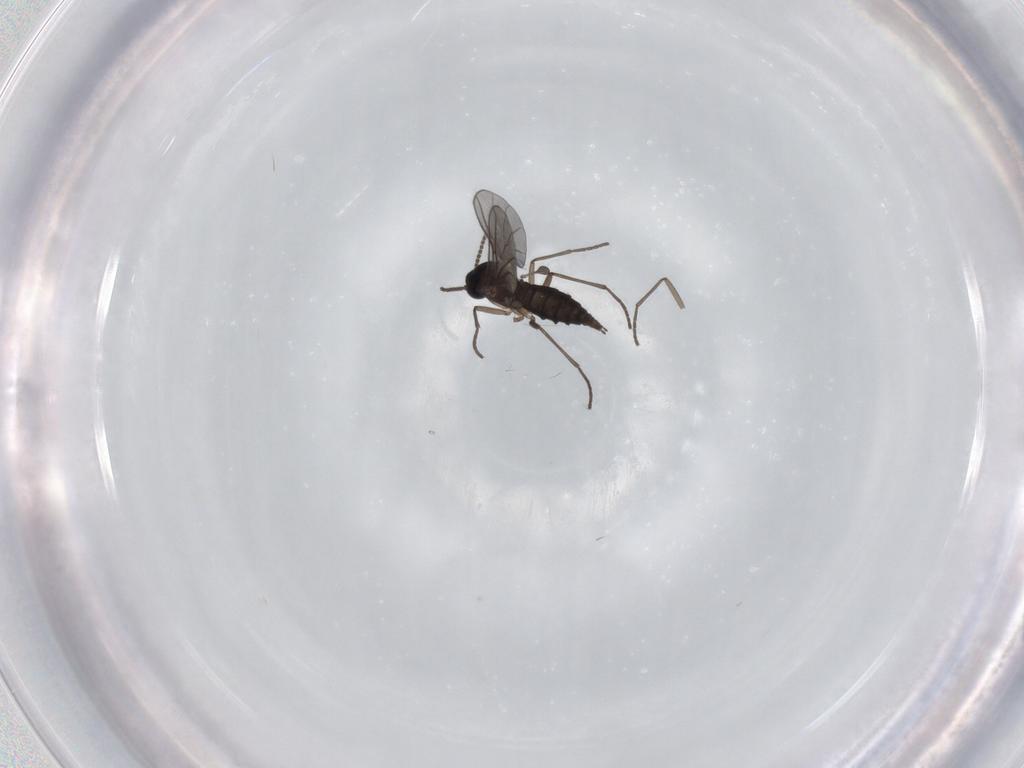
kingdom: Animalia
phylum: Arthropoda
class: Insecta
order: Diptera
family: Sciaridae
